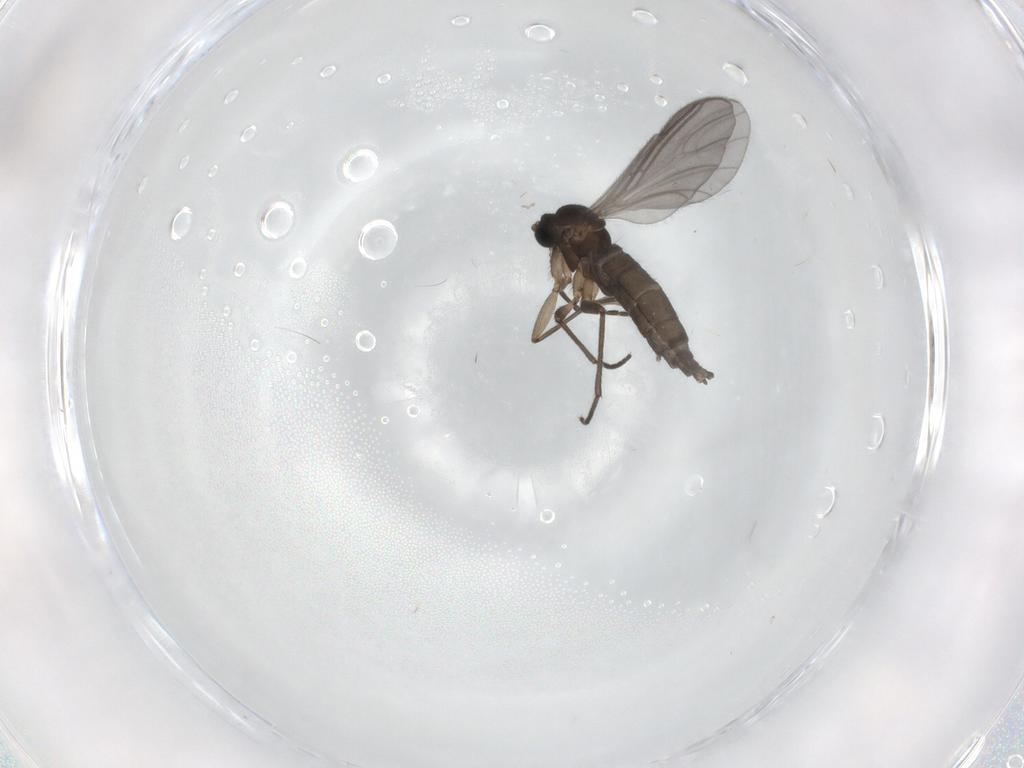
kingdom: Animalia
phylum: Arthropoda
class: Insecta
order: Diptera
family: Sciaridae
